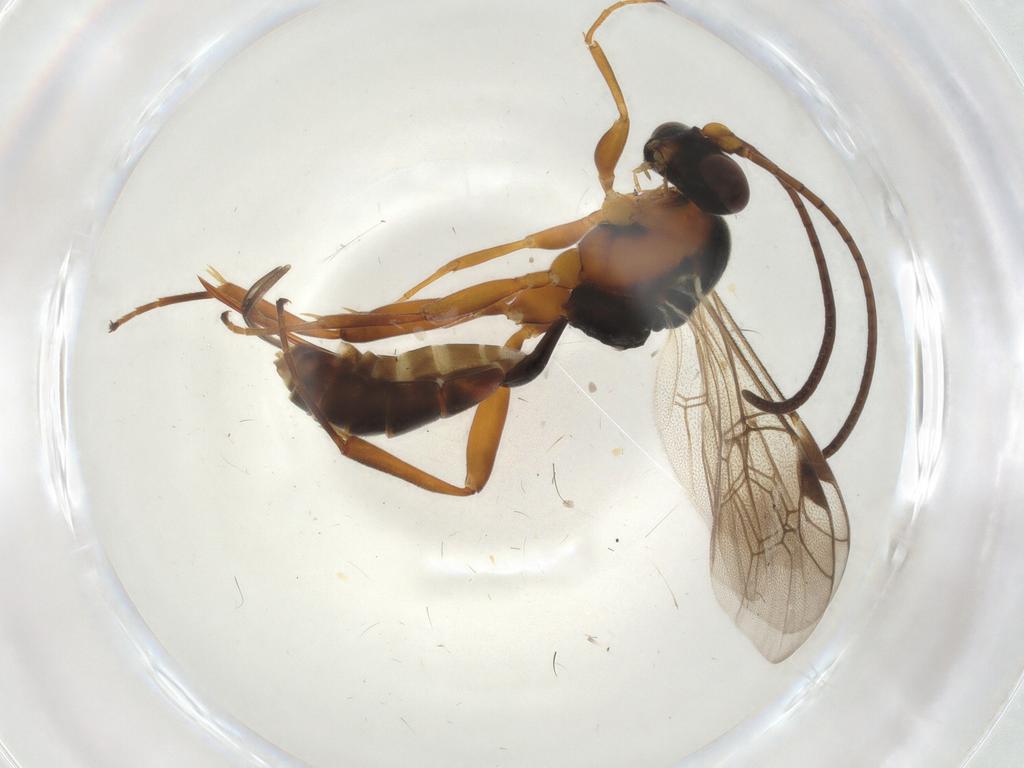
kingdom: Animalia
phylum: Arthropoda
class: Insecta
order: Hymenoptera
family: Ichneumonidae
